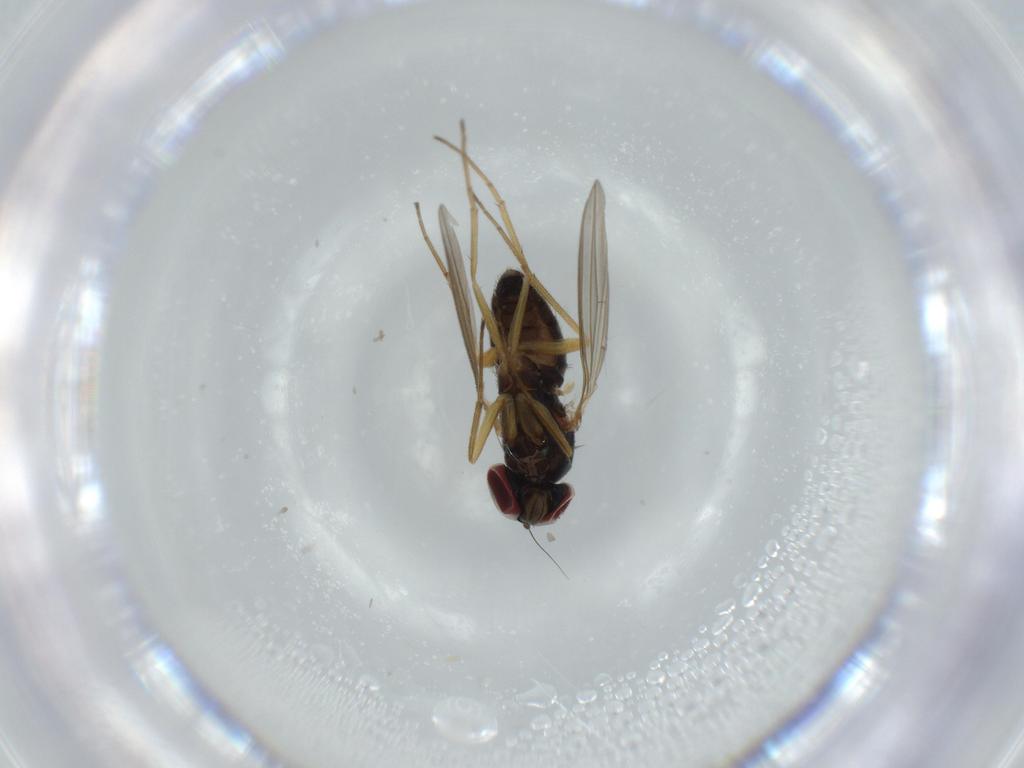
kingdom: Animalia
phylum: Arthropoda
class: Insecta
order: Diptera
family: Dolichopodidae
